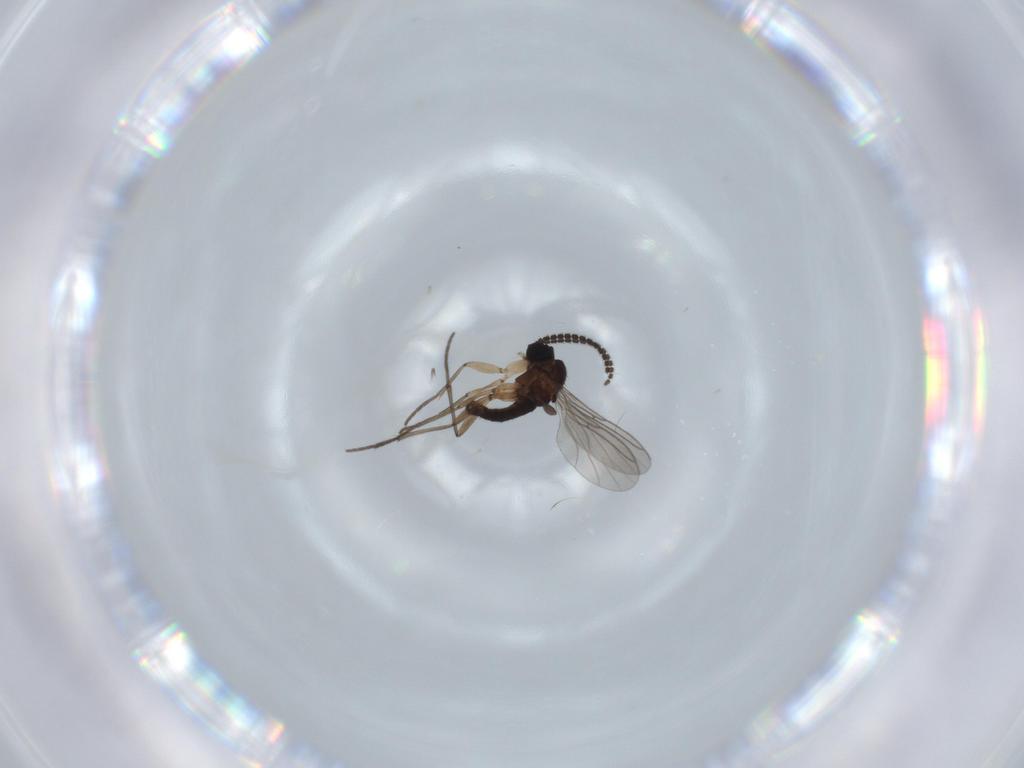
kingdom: Animalia
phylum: Arthropoda
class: Insecta
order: Diptera
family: Sciaridae
